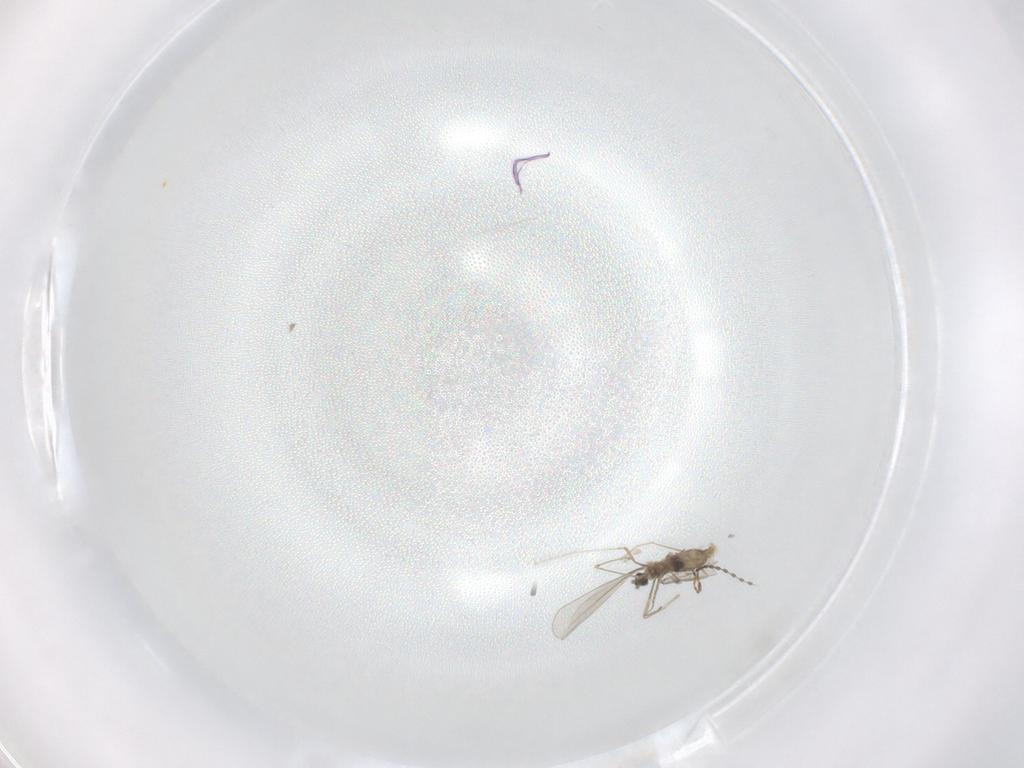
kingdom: Animalia
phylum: Arthropoda
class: Insecta
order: Diptera
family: Cecidomyiidae
